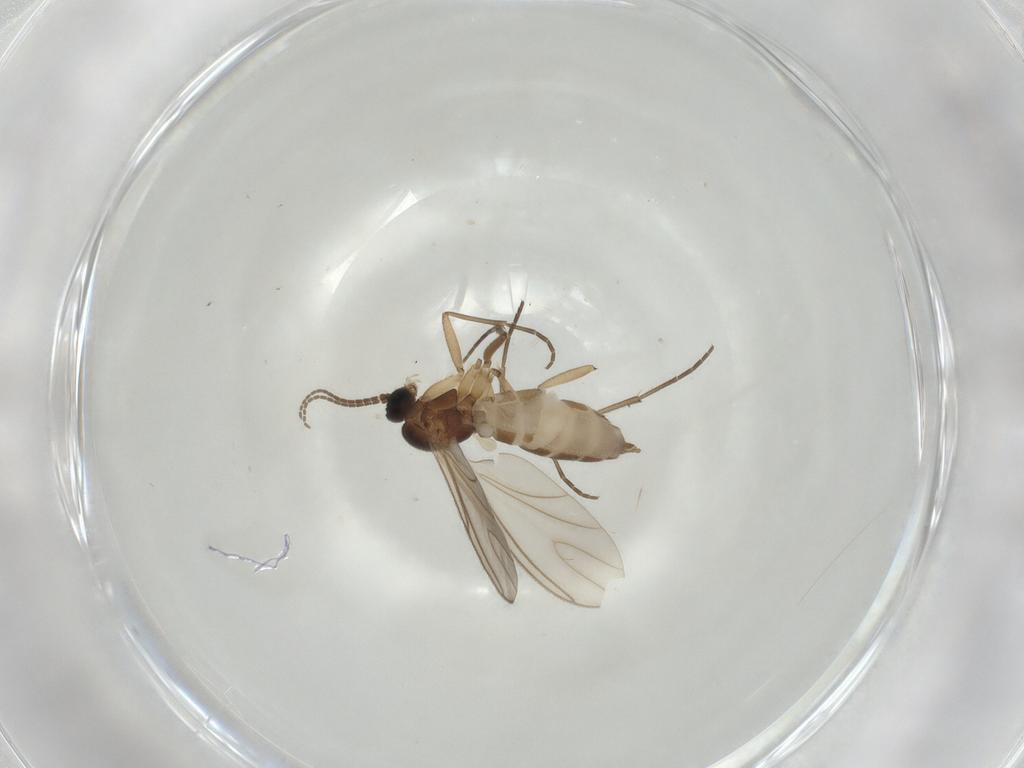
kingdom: Animalia
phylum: Arthropoda
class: Insecta
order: Diptera
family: Sciaridae
